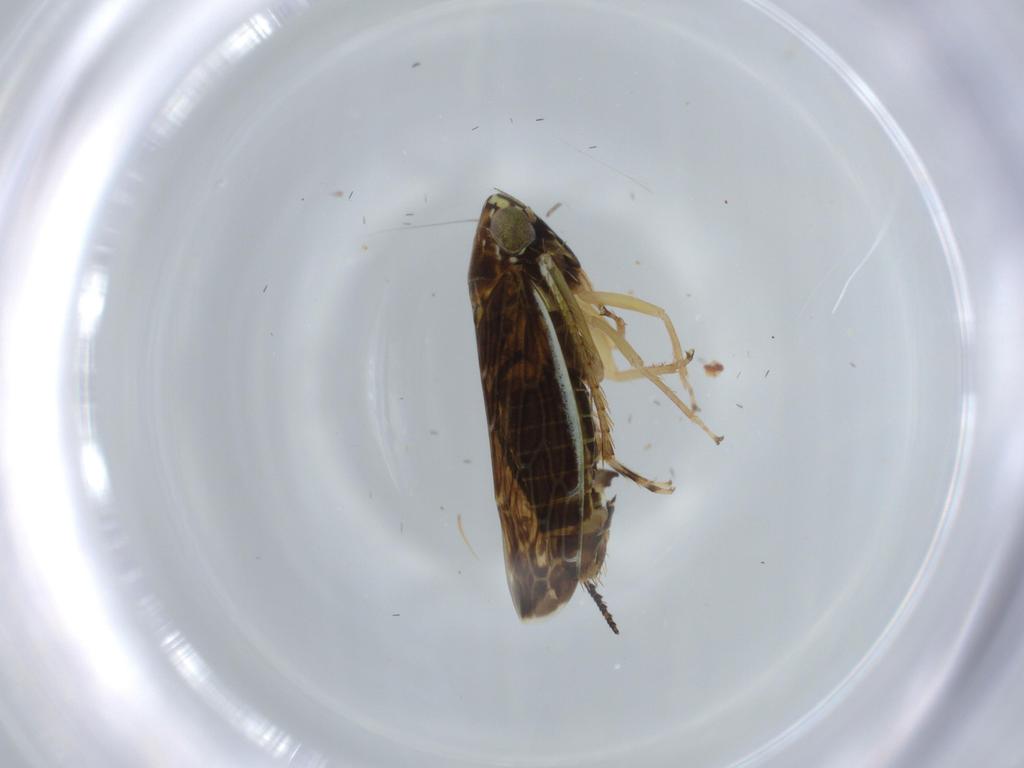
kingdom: Animalia
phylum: Arthropoda
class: Insecta
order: Hemiptera
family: Cicadellidae
